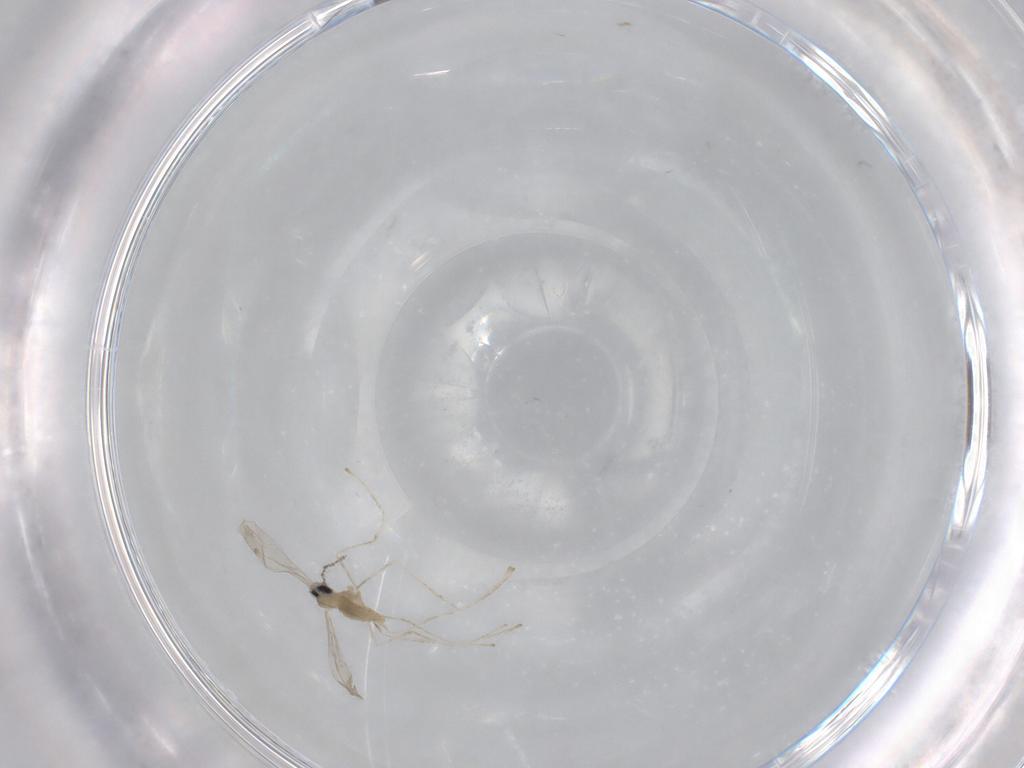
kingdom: Animalia
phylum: Arthropoda
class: Insecta
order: Diptera
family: Cecidomyiidae
